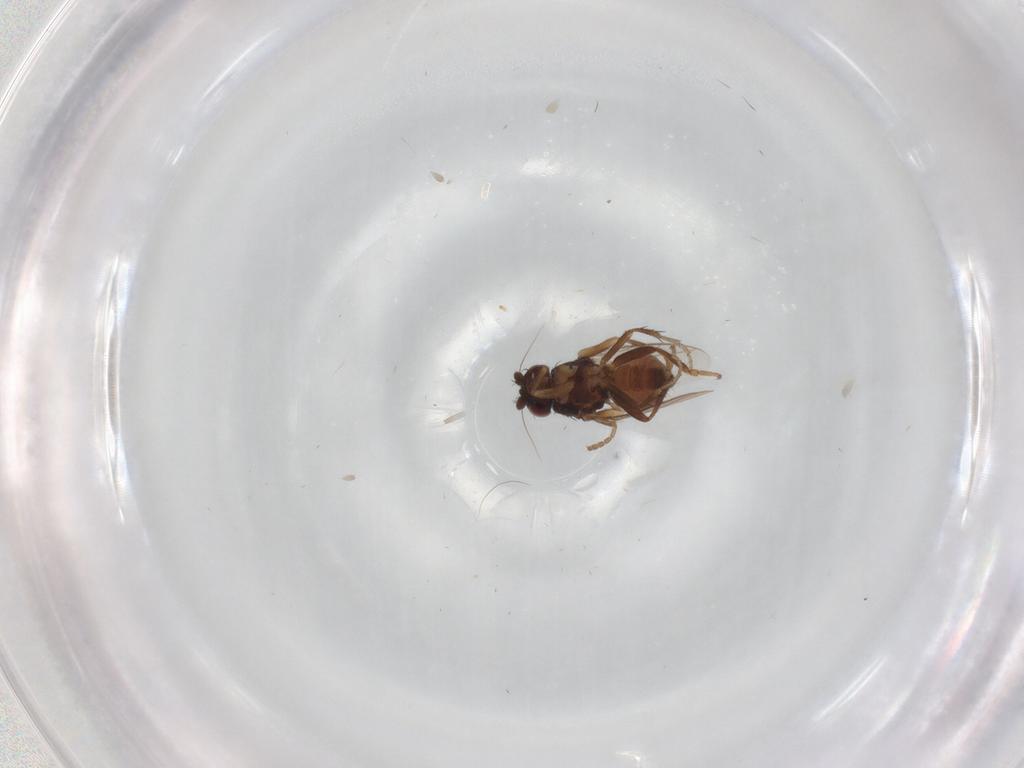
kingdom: Animalia
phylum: Arthropoda
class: Insecta
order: Diptera
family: Sphaeroceridae
